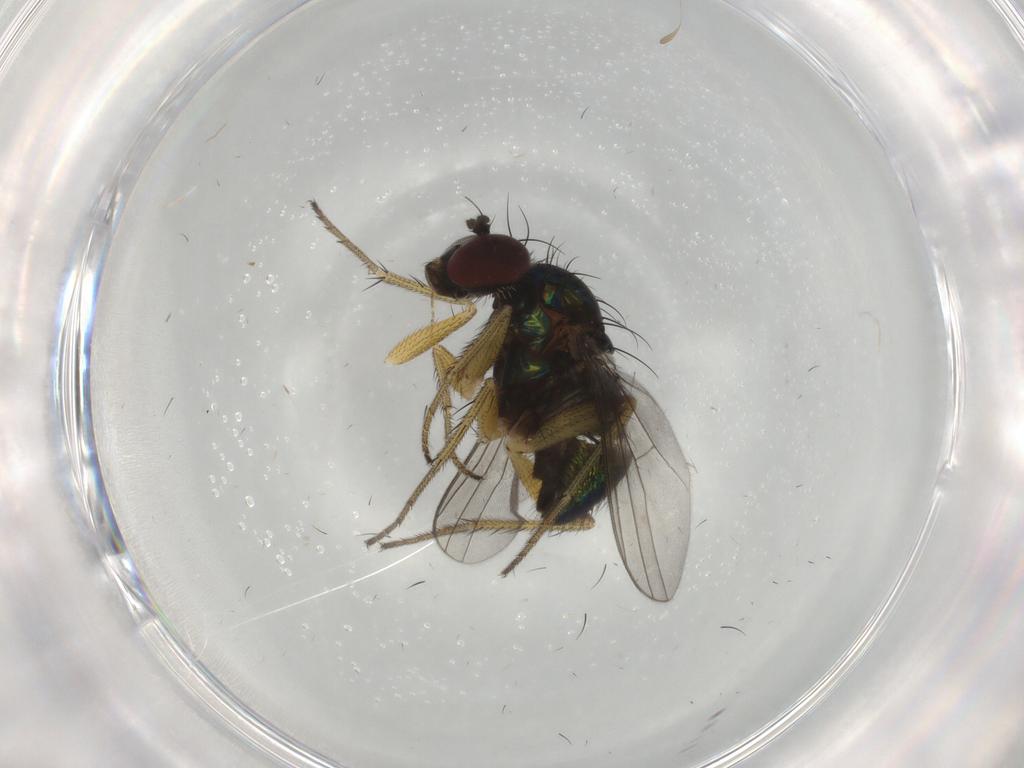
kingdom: Animalia
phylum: Arthropoda
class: Insecta
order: Diptera
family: Dolichopodidae
